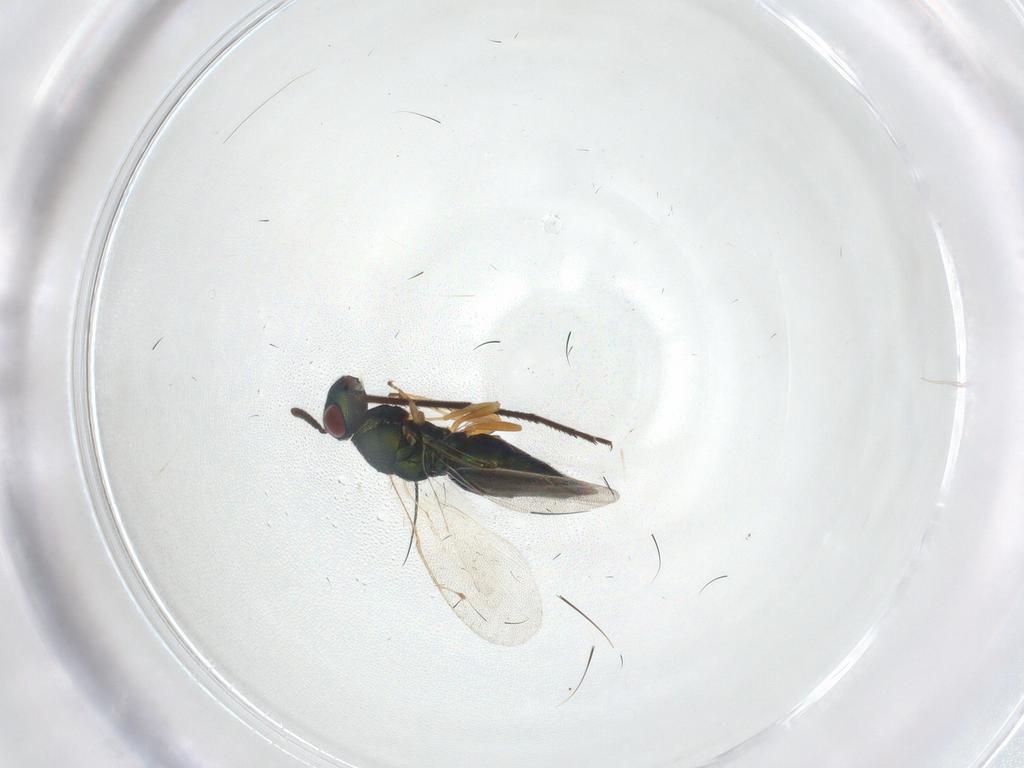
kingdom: Animalia
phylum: Arthropoda
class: Insecta
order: Hymenoptera
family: Pteromalidae
